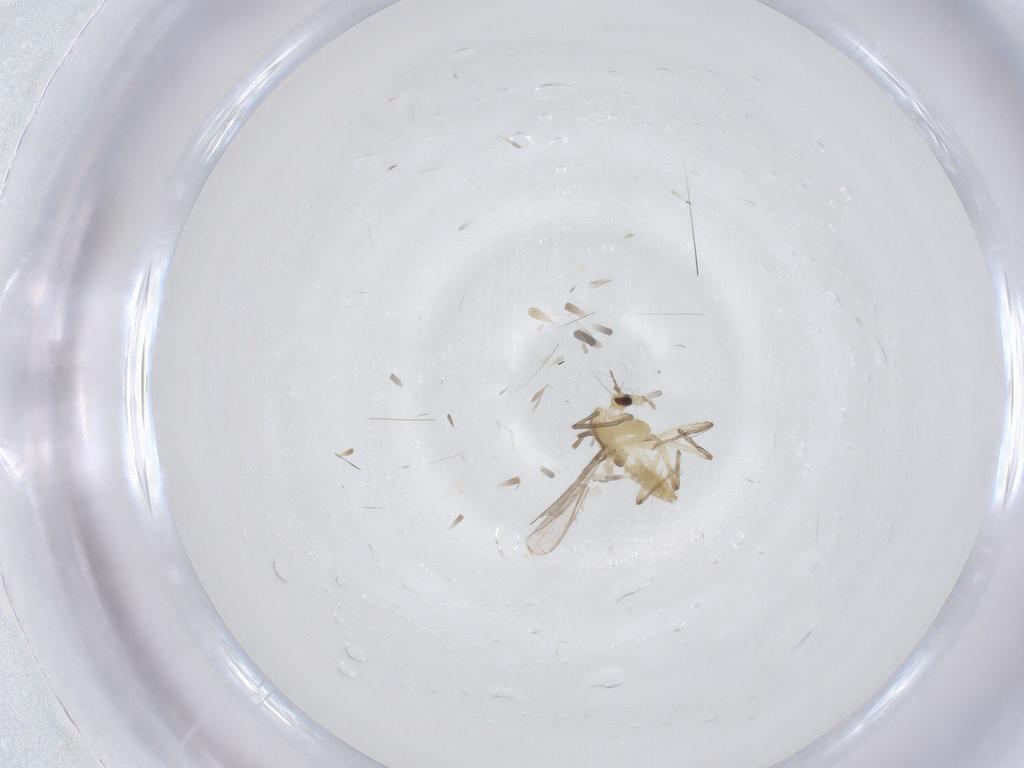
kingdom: Animalia
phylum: Arthropoda
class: Insecta
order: Diptera
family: Chironomidae
